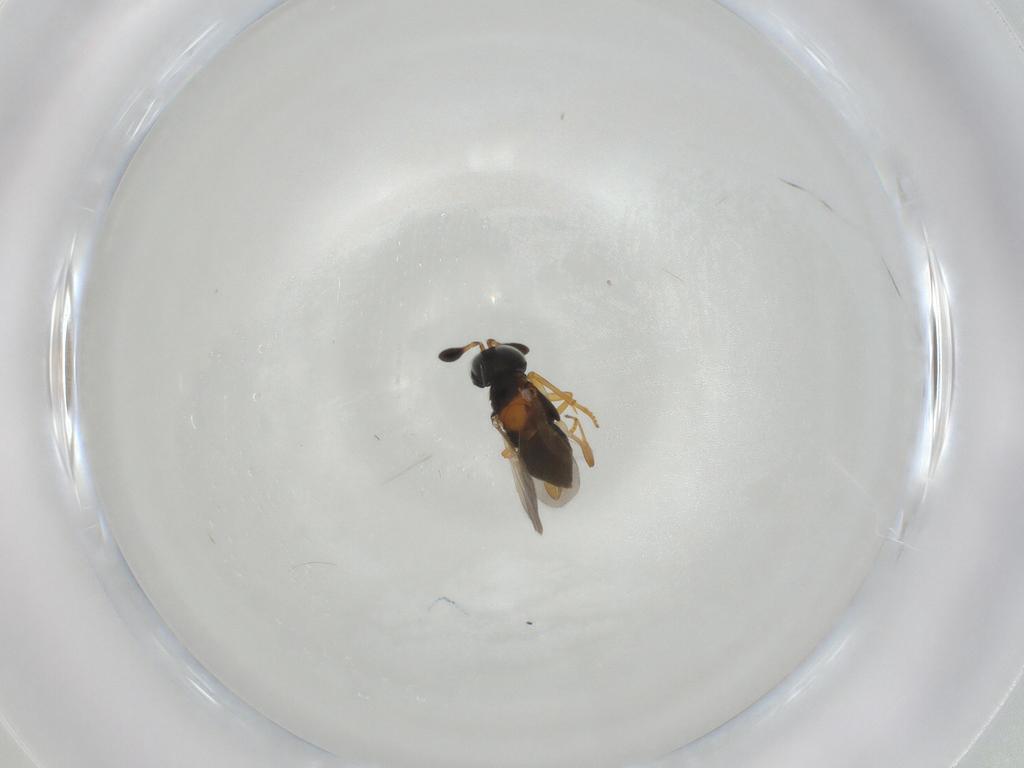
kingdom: Animalia
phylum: Arthropoda
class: Insecta
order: Hymenoptera
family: Encyrtidae
